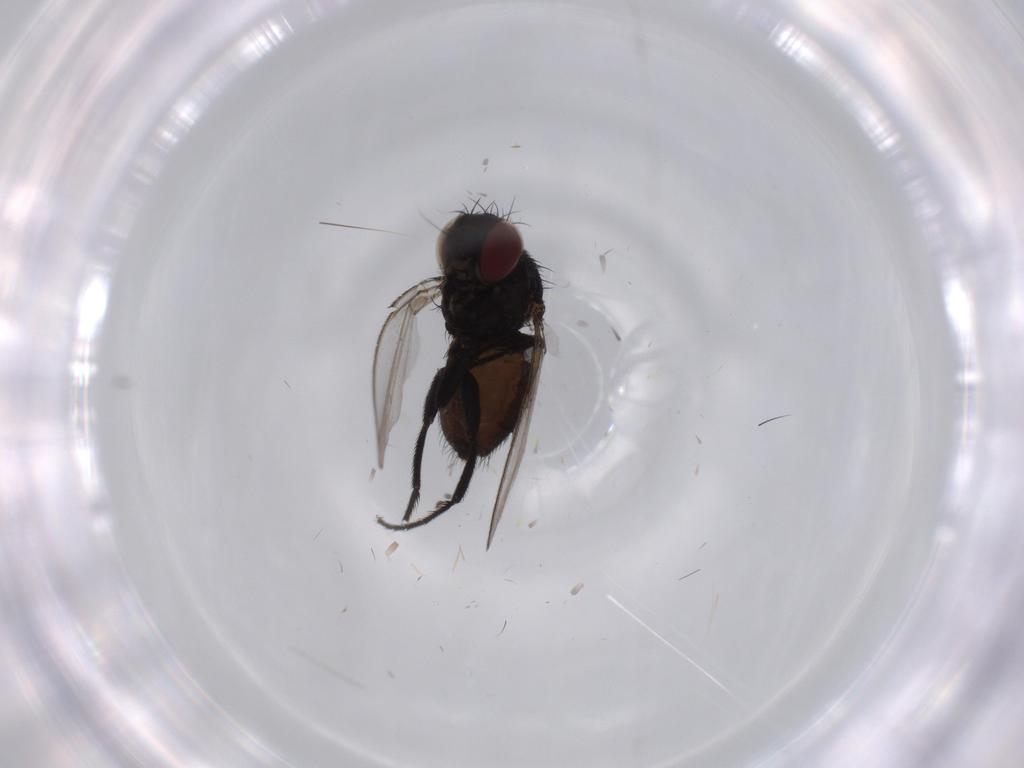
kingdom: Animalia
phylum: Arthropoda
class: Insecta
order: Diptera
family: Milichiidae
